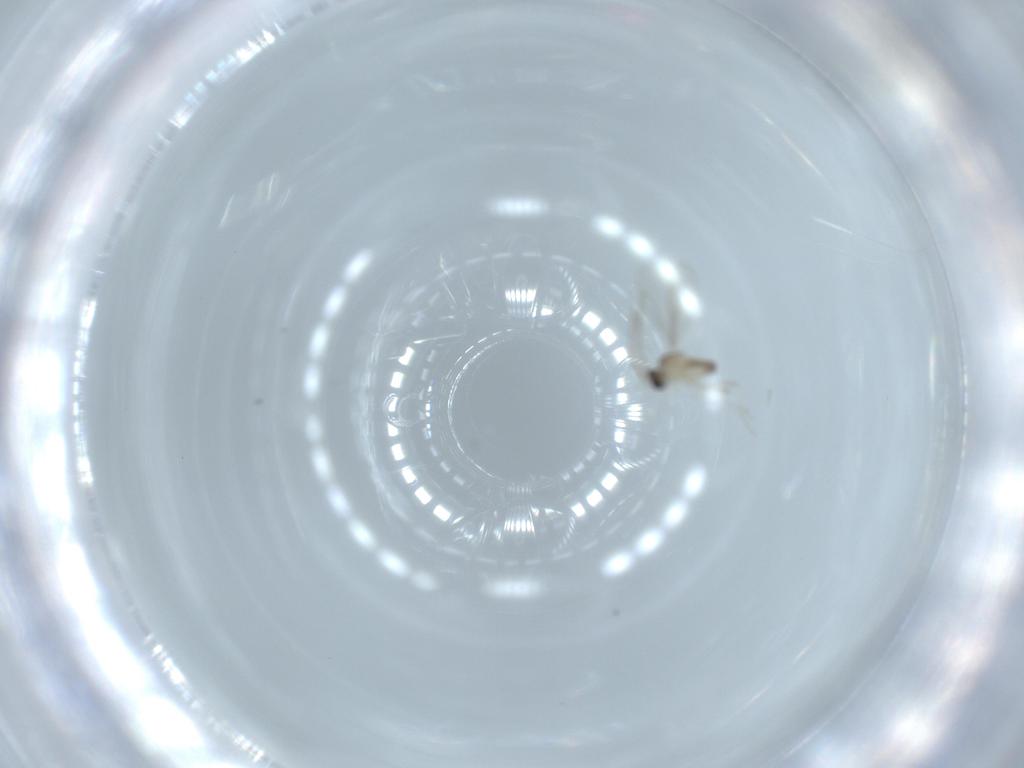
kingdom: Animalia
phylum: Arthropoda
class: Insecta
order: Diptera
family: Cecidomyiidae
